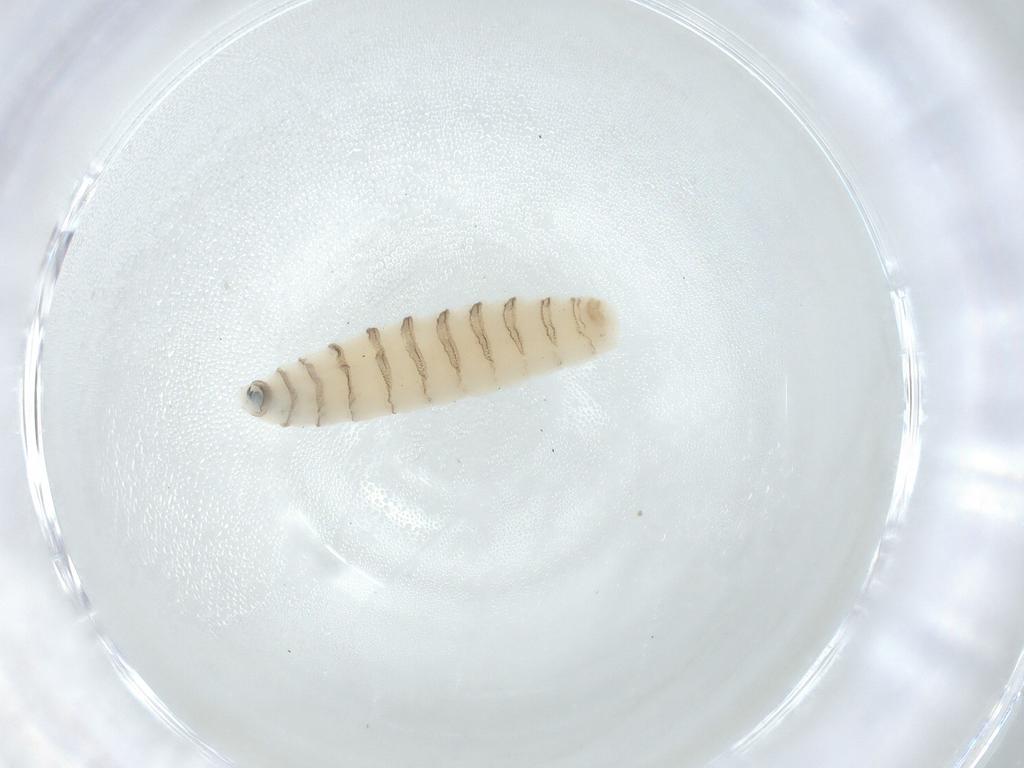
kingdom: Animalia
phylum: Arthropoda
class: Insecta
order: Diptera
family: Sarcophagidae
